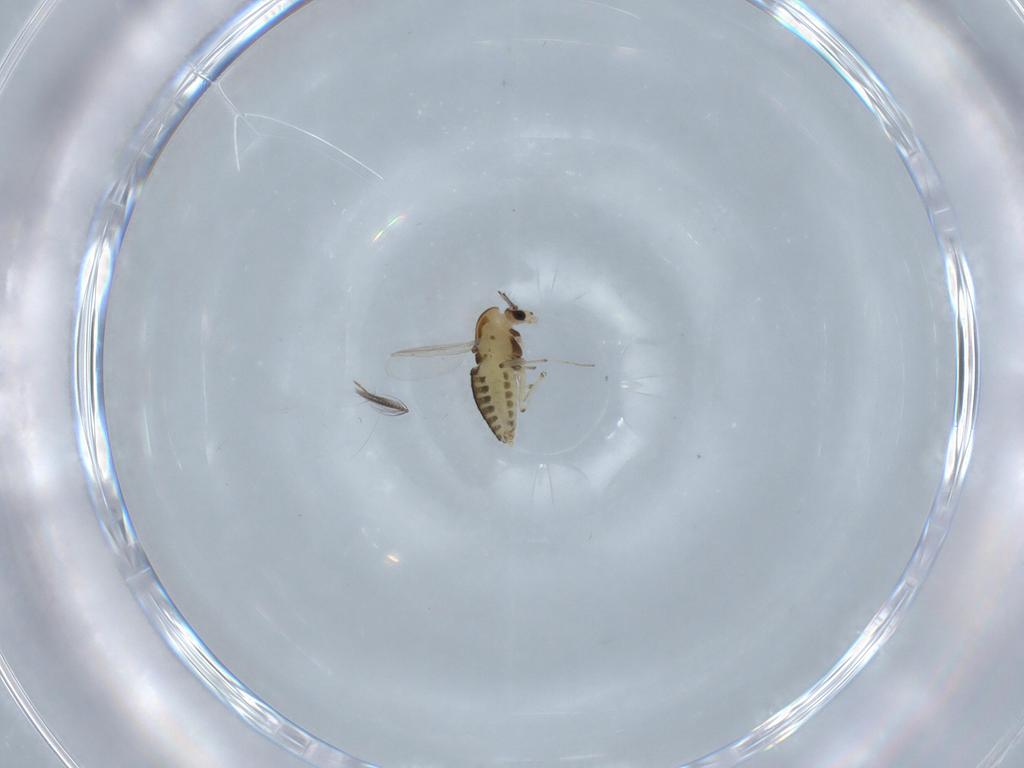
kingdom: Animalia
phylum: Arthropoda
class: Insecta
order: Diptera
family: Chironomidae
